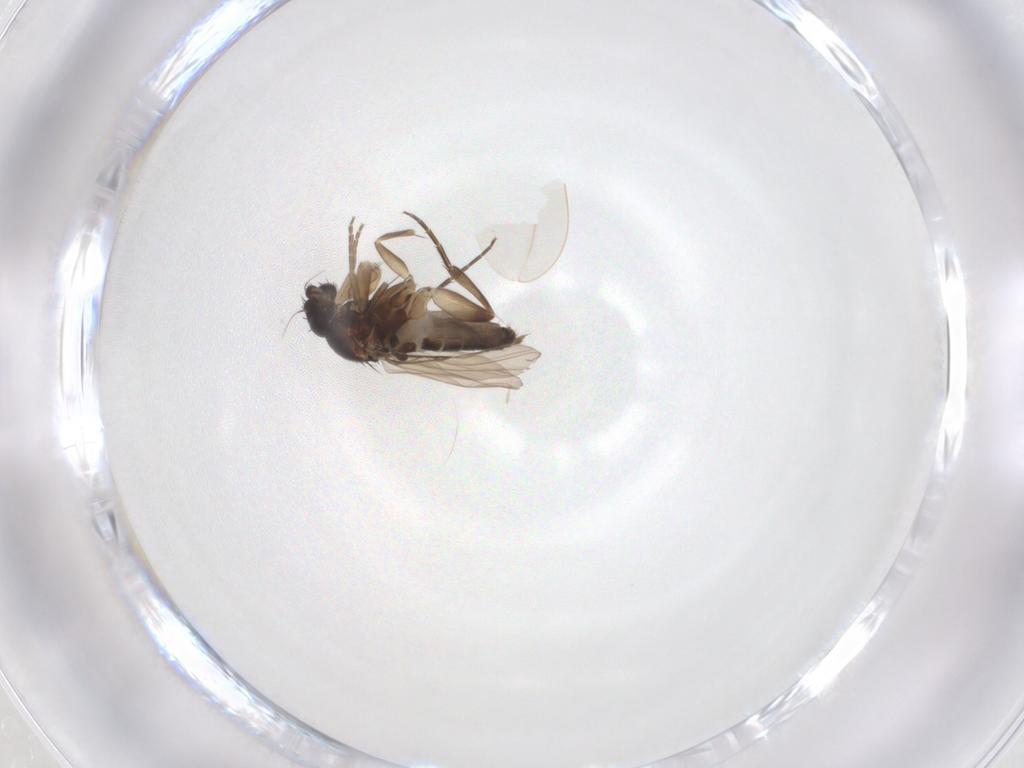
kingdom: Animalia
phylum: Arthropoda
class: Insecta
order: Diptera
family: Phoridae
